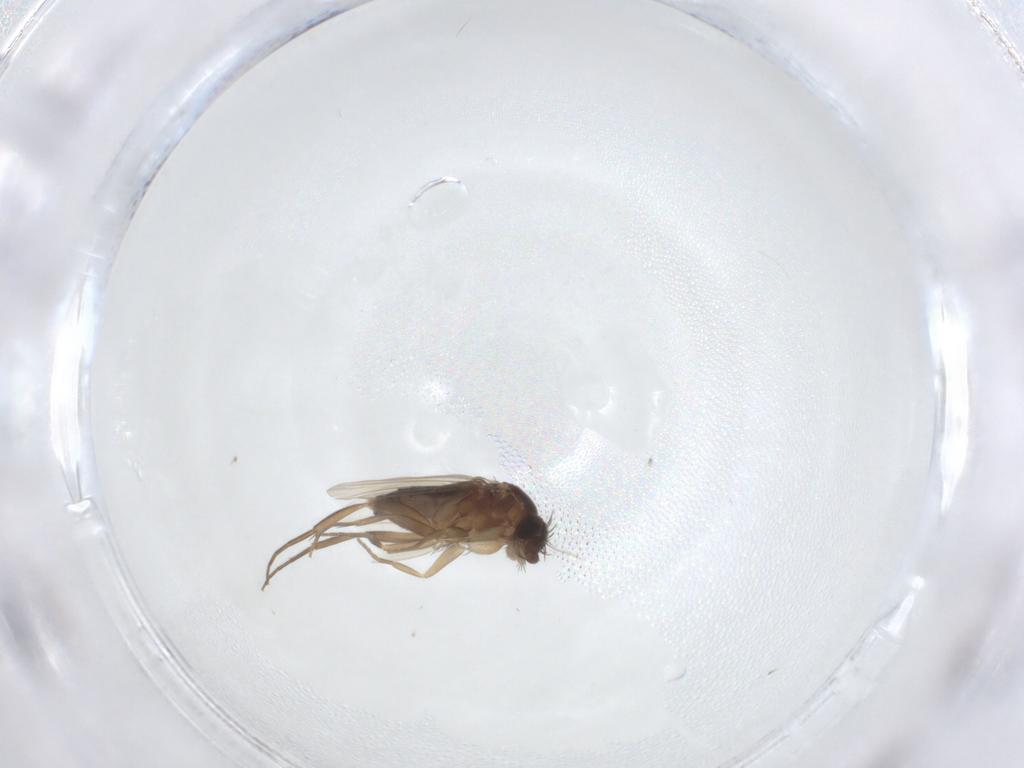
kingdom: Animalia
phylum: Arthropoda
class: Insecta
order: Diptera
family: Phoridae
